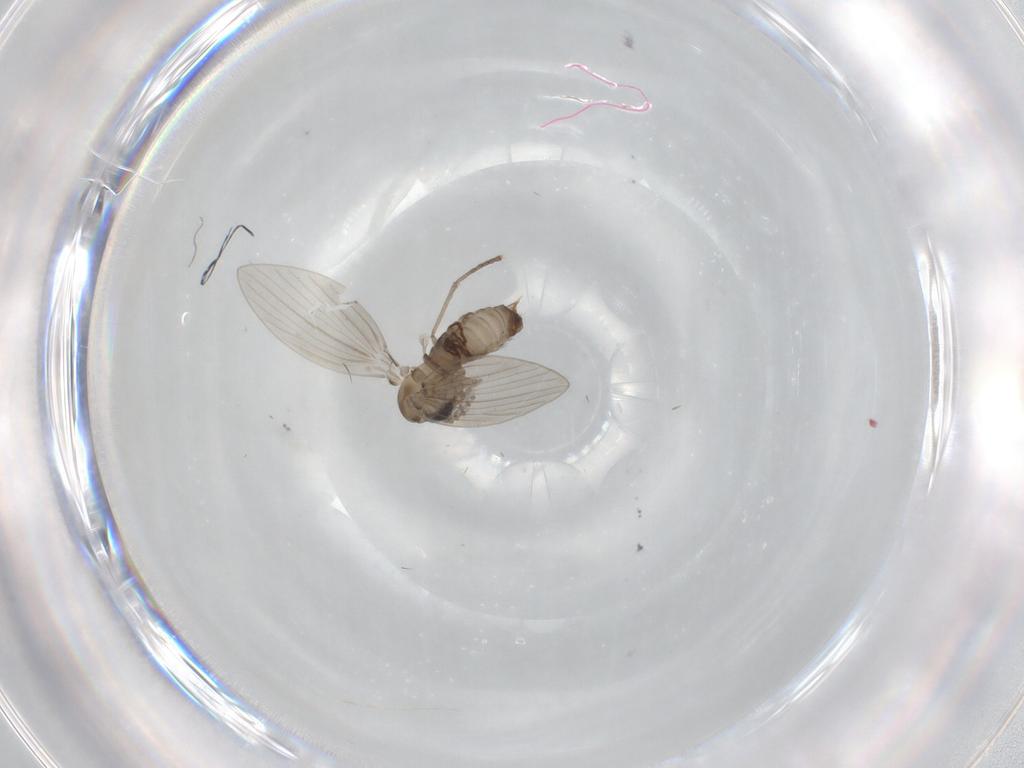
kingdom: Animalia
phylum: Arthropoda
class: Insecta
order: Diptera
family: Psychodidae
